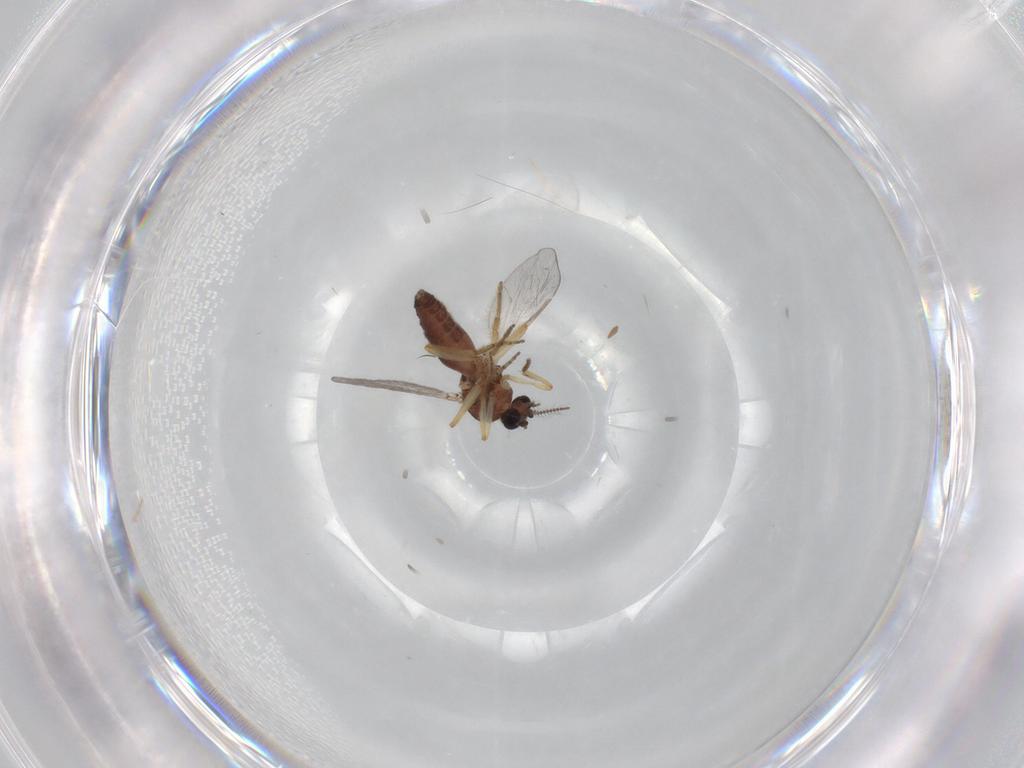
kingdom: Animalia
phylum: Arthropoda
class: Insecta
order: Diptera
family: Ceratopogonidae
